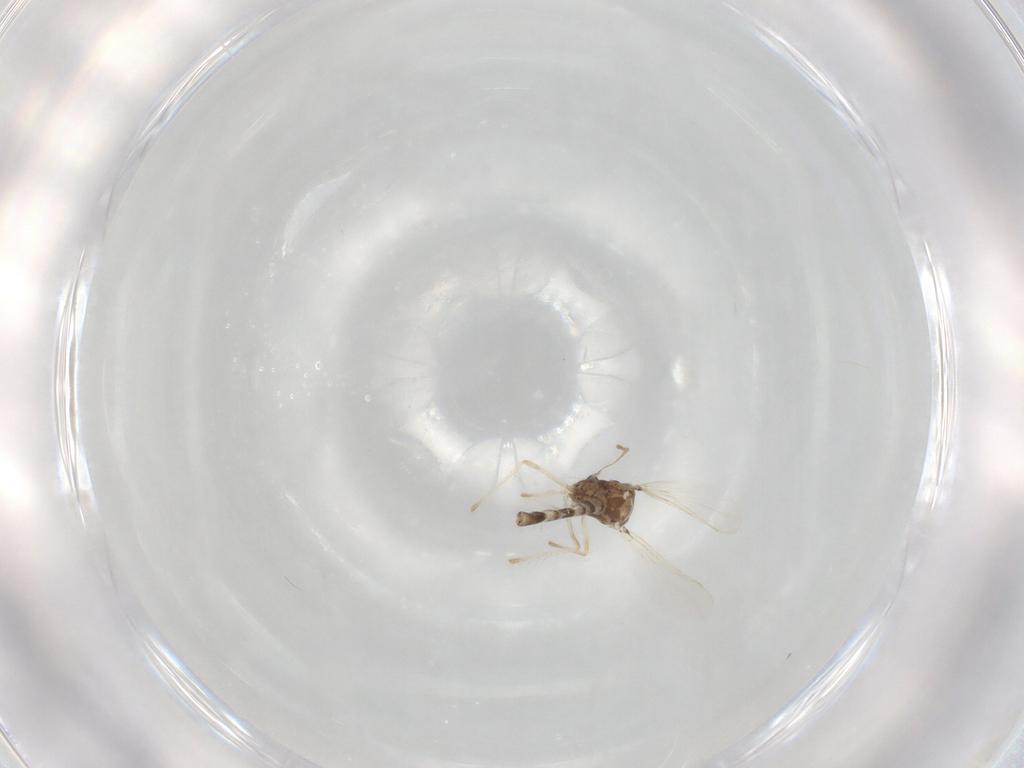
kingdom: Animalia
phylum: Arthropoda
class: Insecta
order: Diptera
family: Chironomidae
